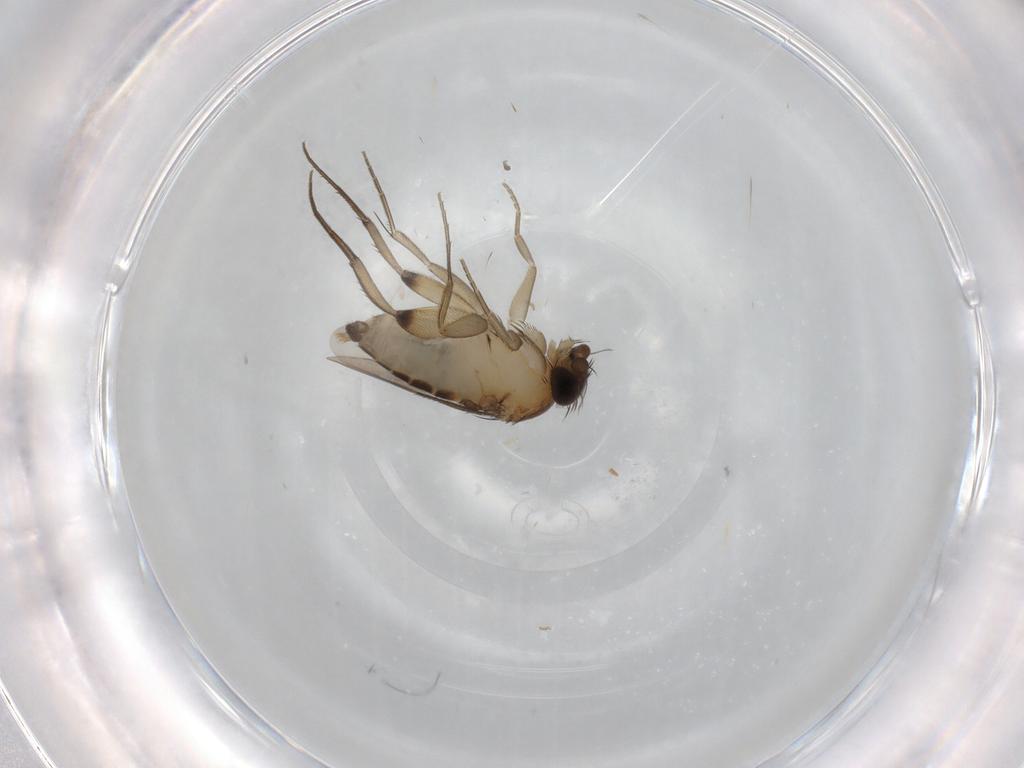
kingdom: Animalia
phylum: Arthropoda
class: Insecta
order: Diptera
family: Phoridae
